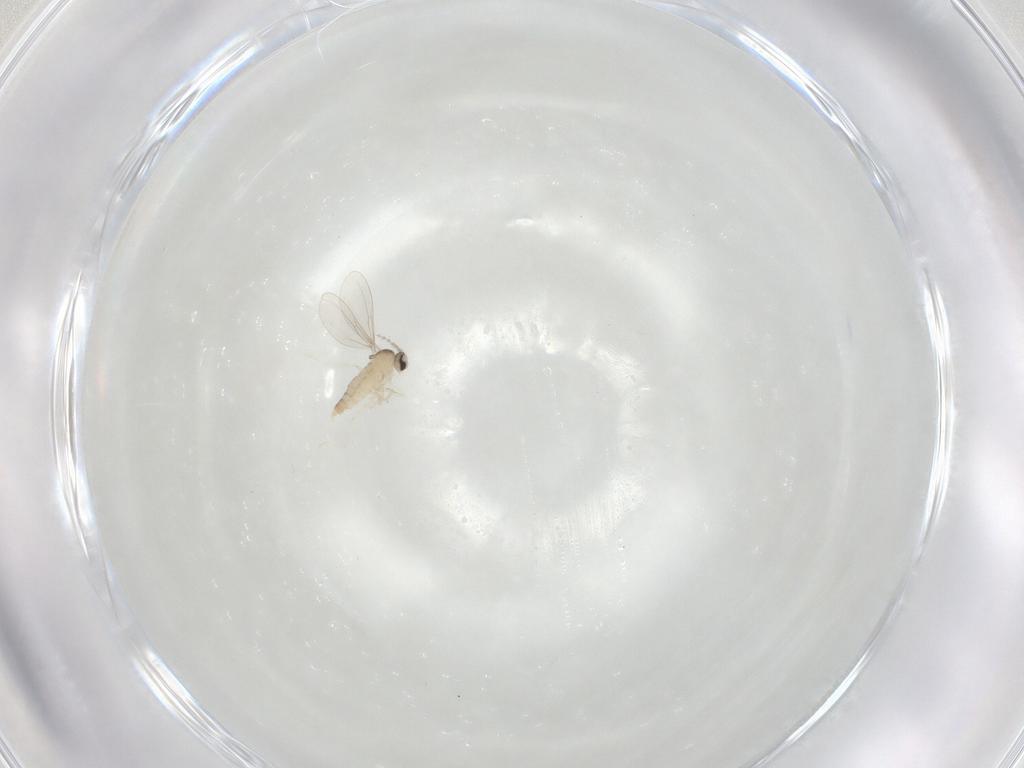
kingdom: Animalia
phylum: Arthropoda
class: Insecta
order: Diptera
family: Cecidomyiidae
